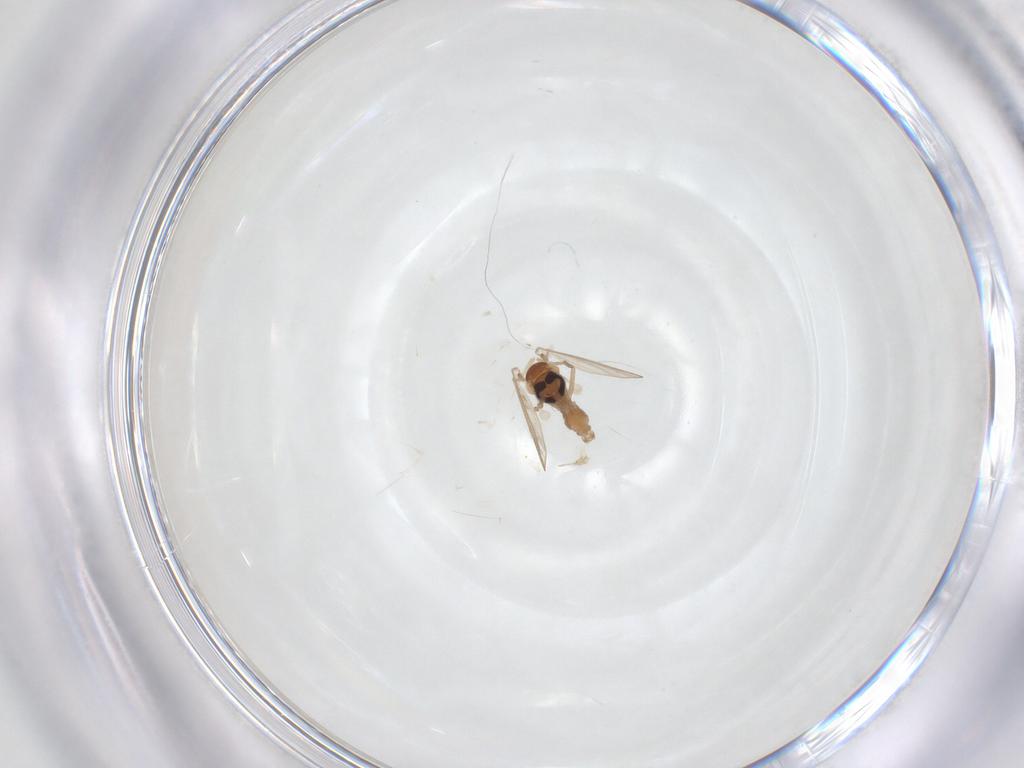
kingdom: Animalia
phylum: Arthropoda
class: Insecta
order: Diptera
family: Psychodidae
